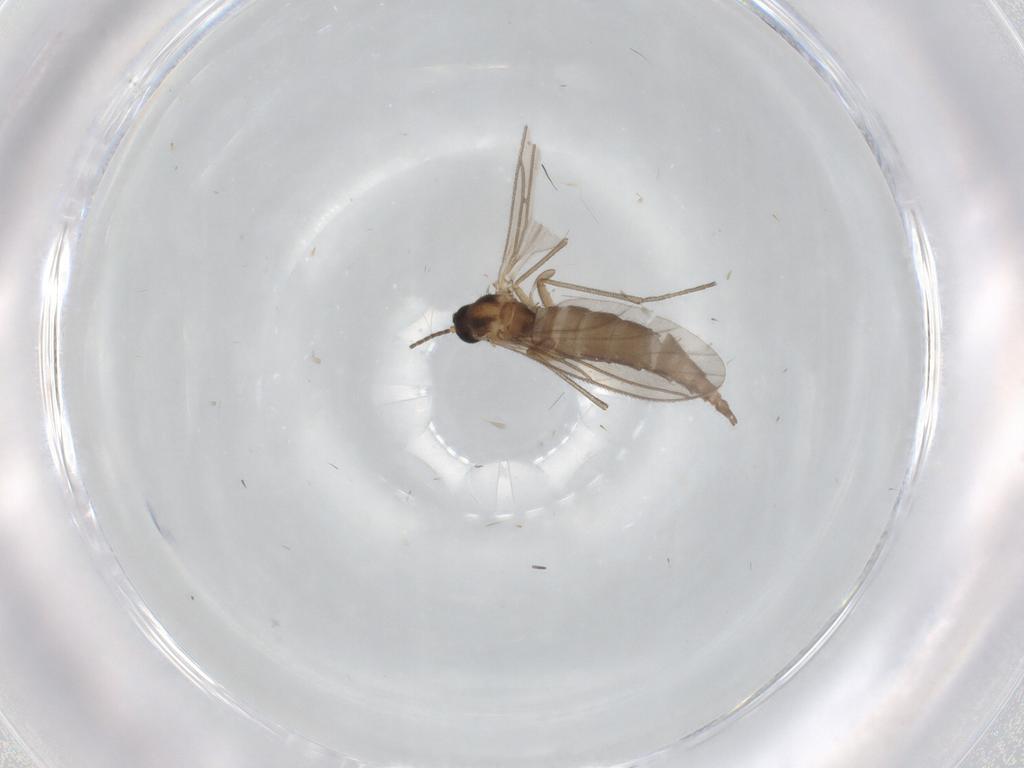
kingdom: Animalia
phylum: Arthropoda
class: Insecta
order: Diptera
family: Sciaridae
